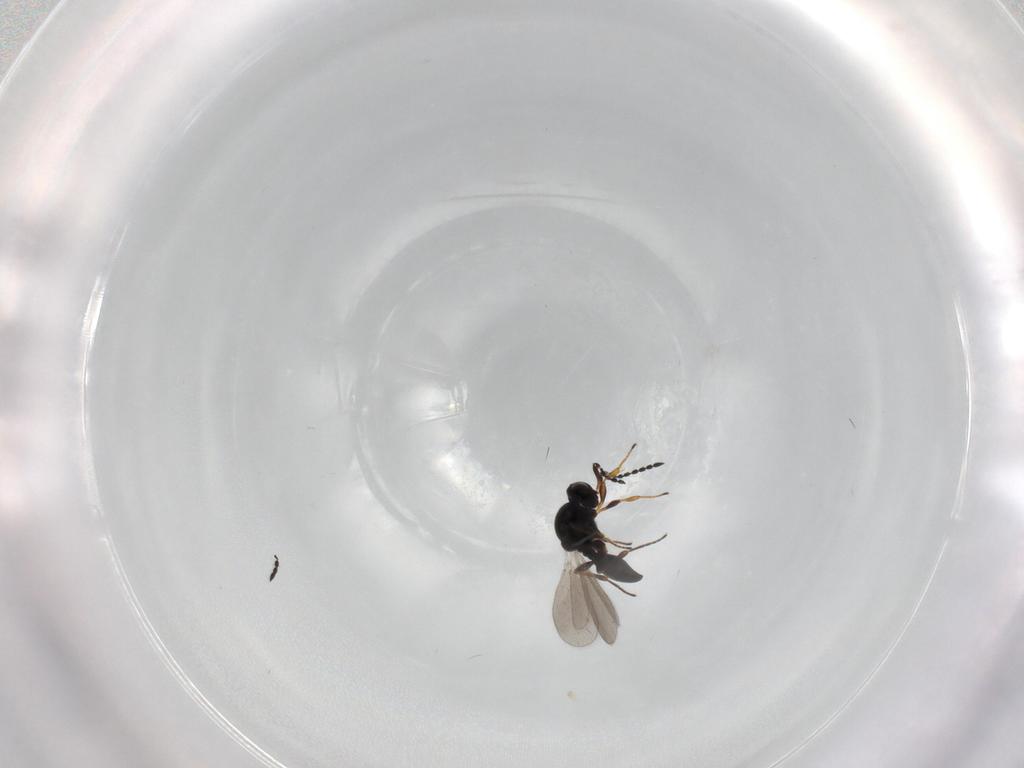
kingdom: Animalia
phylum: Arthropoda
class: Insecta
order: Hymenoptera
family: Platygastridae
